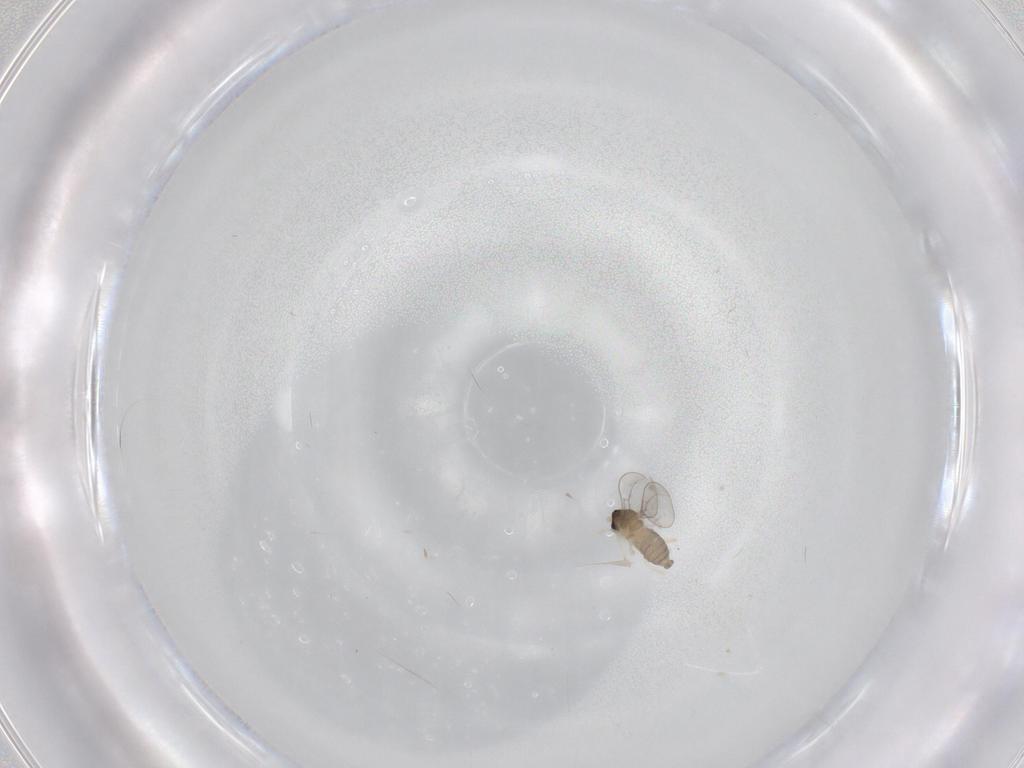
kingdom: Animalia
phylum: Arthropoda
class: Insecta
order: Diptera
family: Cecidomyiidae
